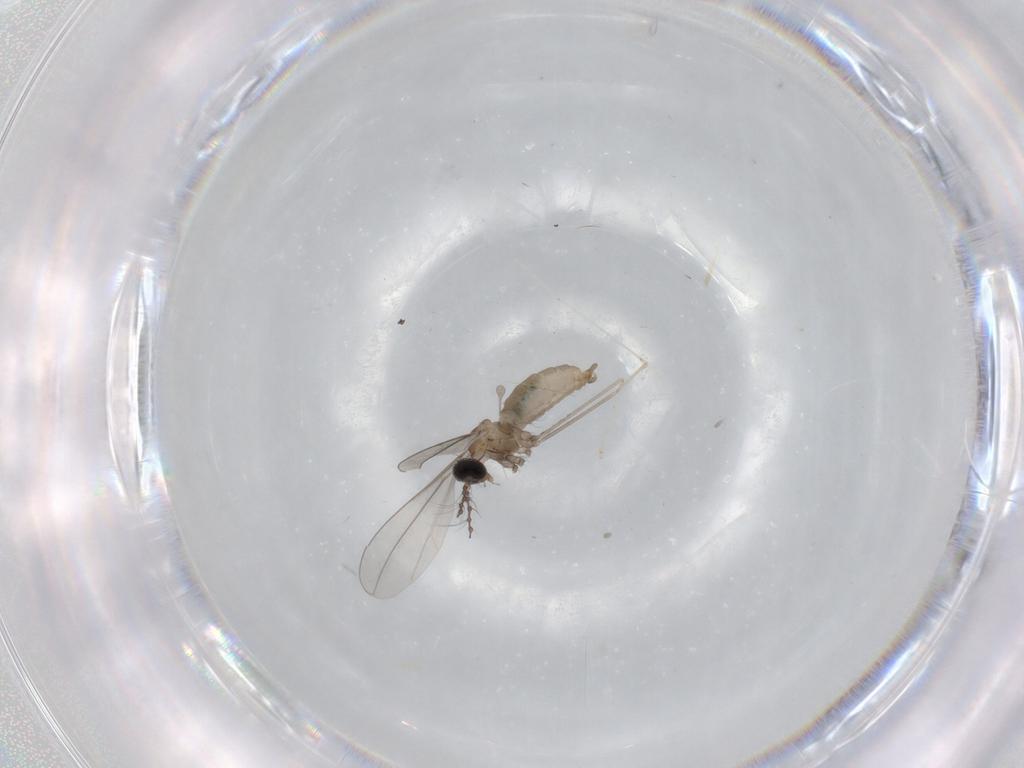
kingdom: Animalia
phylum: Arthropoda
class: Insecta
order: Diptera
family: Cecidomyiidae
